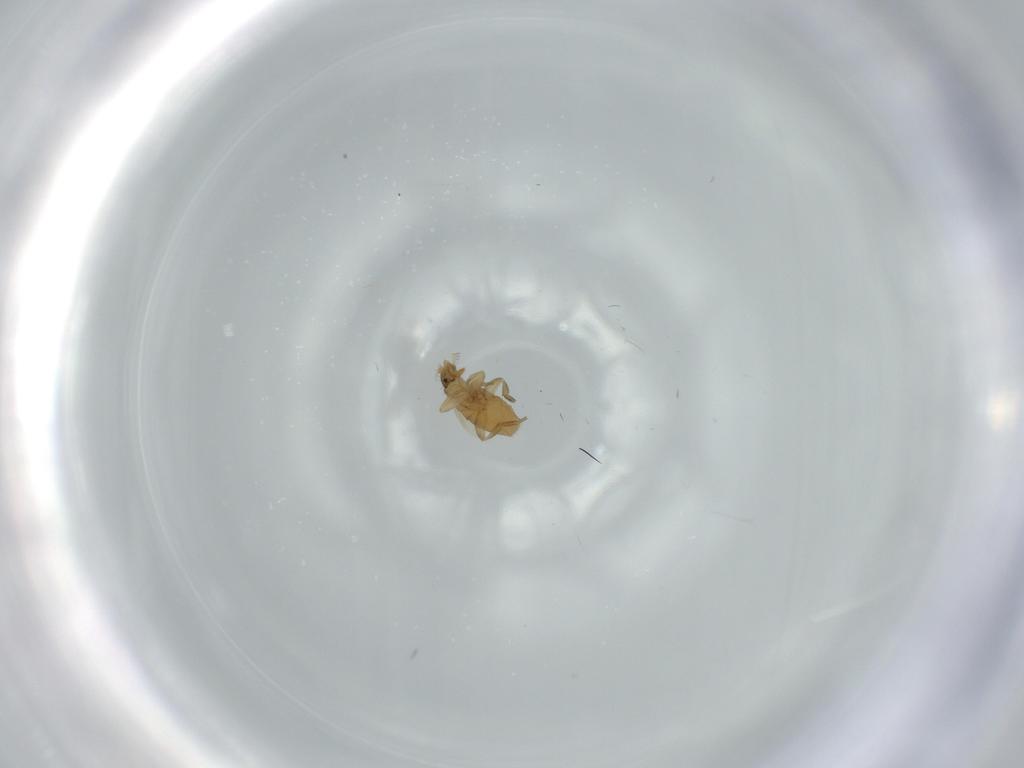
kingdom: Animalia
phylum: Arthropoda
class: Insecta
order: Diptera
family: Phoridae
